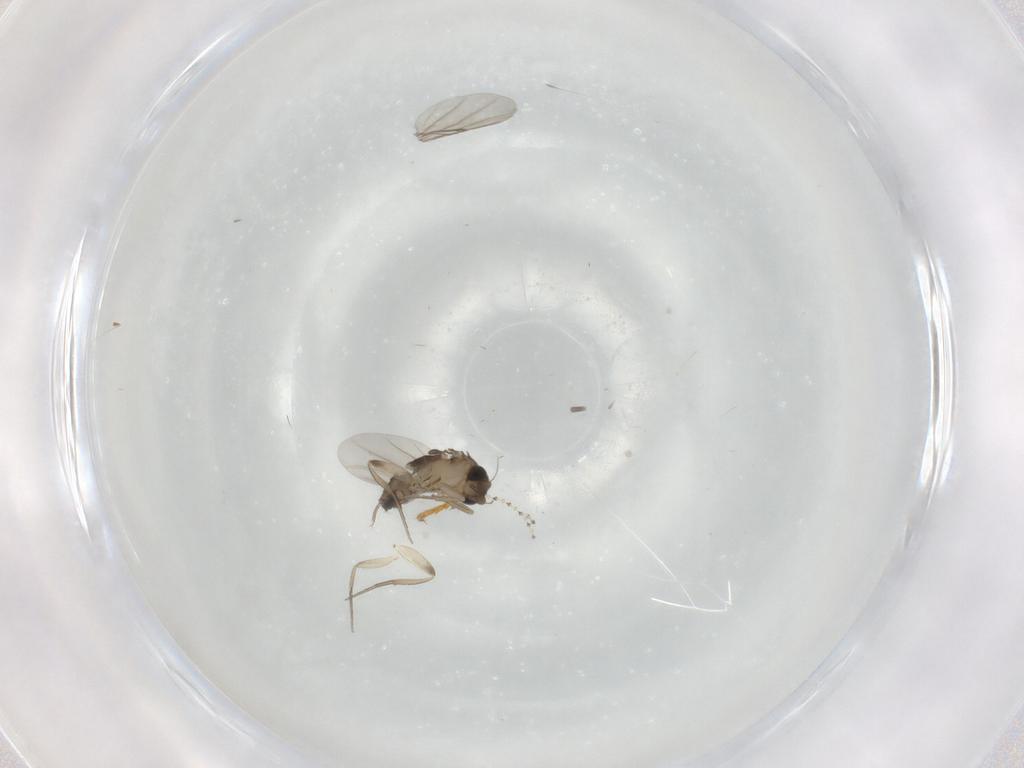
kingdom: Animalia
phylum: Arthropoda
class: Insecta
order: Diptera
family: Phoridae
